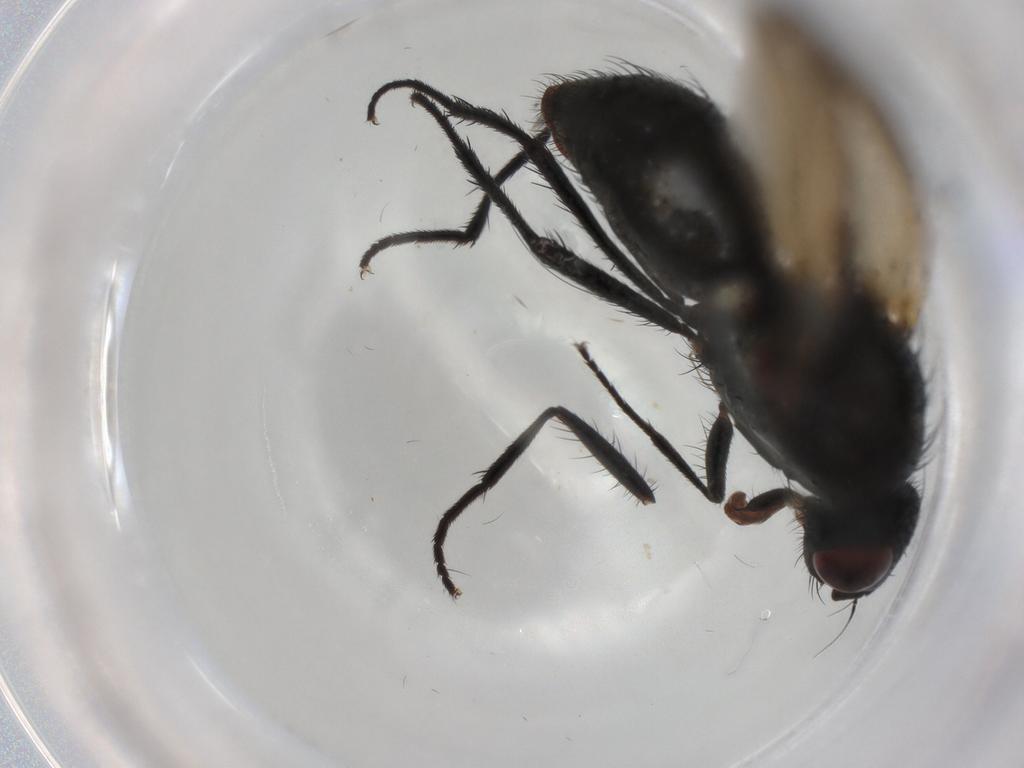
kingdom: Animalia
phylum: Arthropoda
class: Insecta
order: Diptera
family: Anthomyiidae
